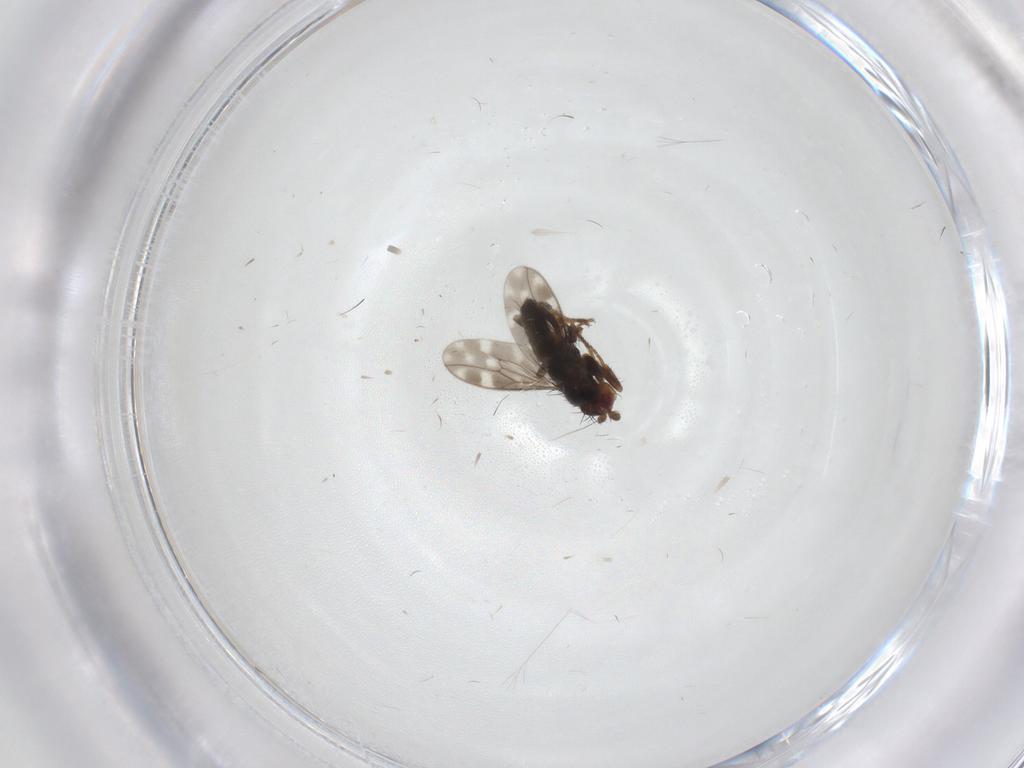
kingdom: Animalia
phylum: Arthropoda
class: Insecta
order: Diptera
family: Sphaeroceridae
